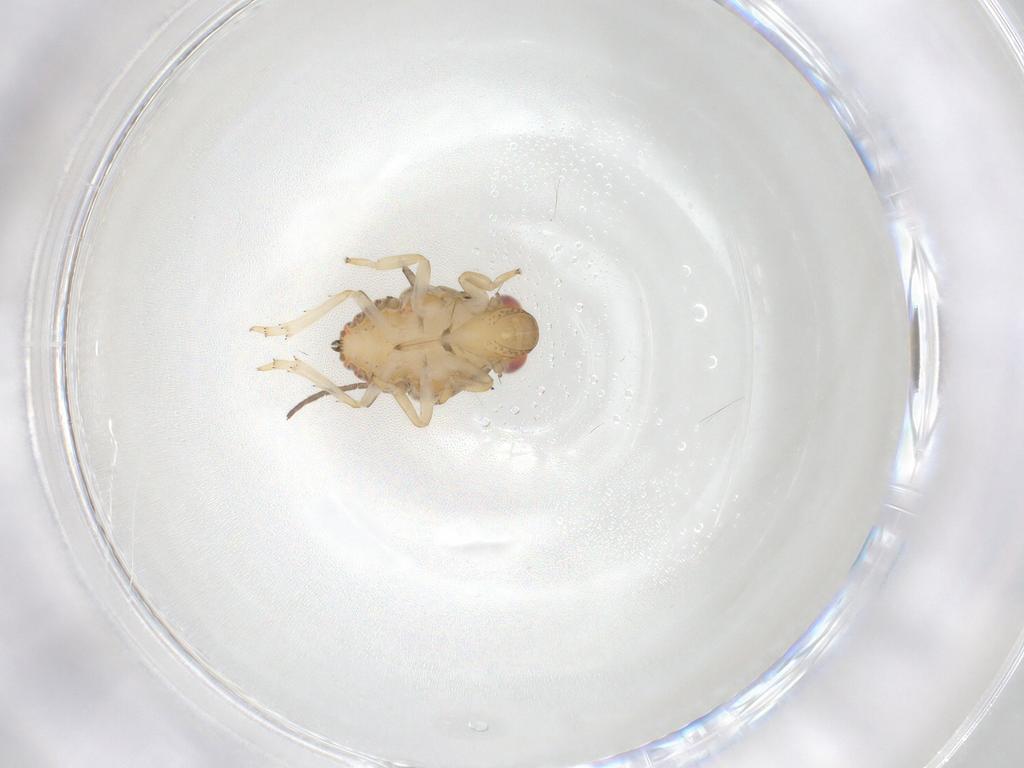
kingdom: Animalia
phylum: Arthropoda
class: Insecta
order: Hemiptera
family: Issidae
